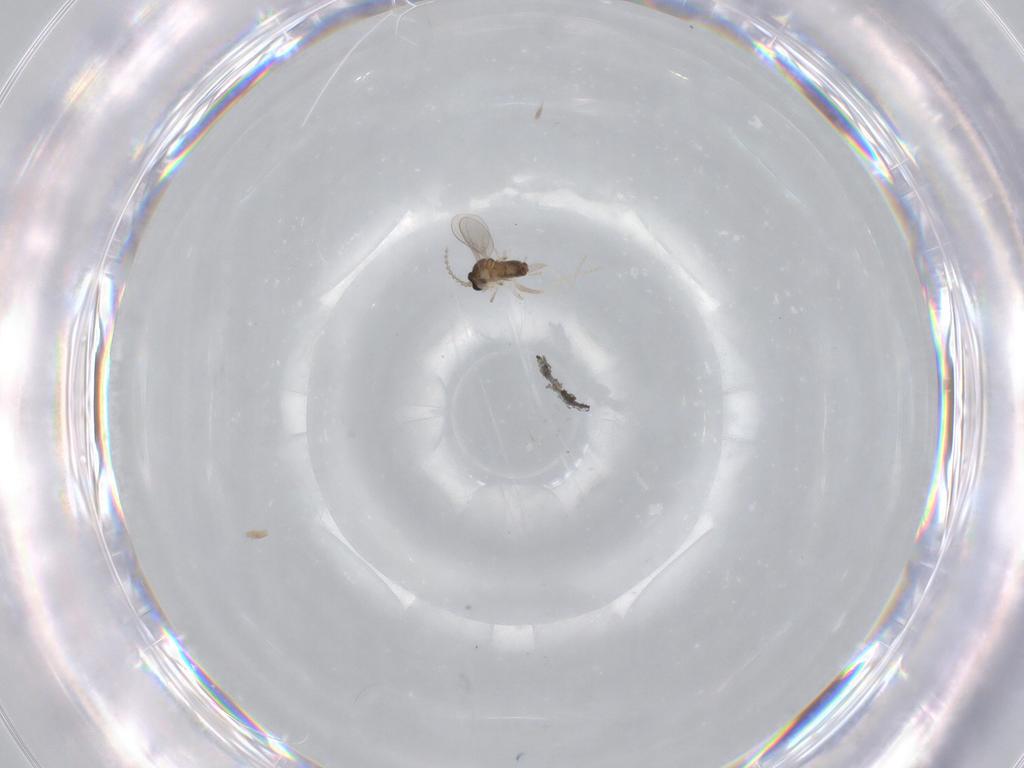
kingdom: Animalia
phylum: Arthropoda
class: Insecta
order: Diptera
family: Cecidomyiidae
